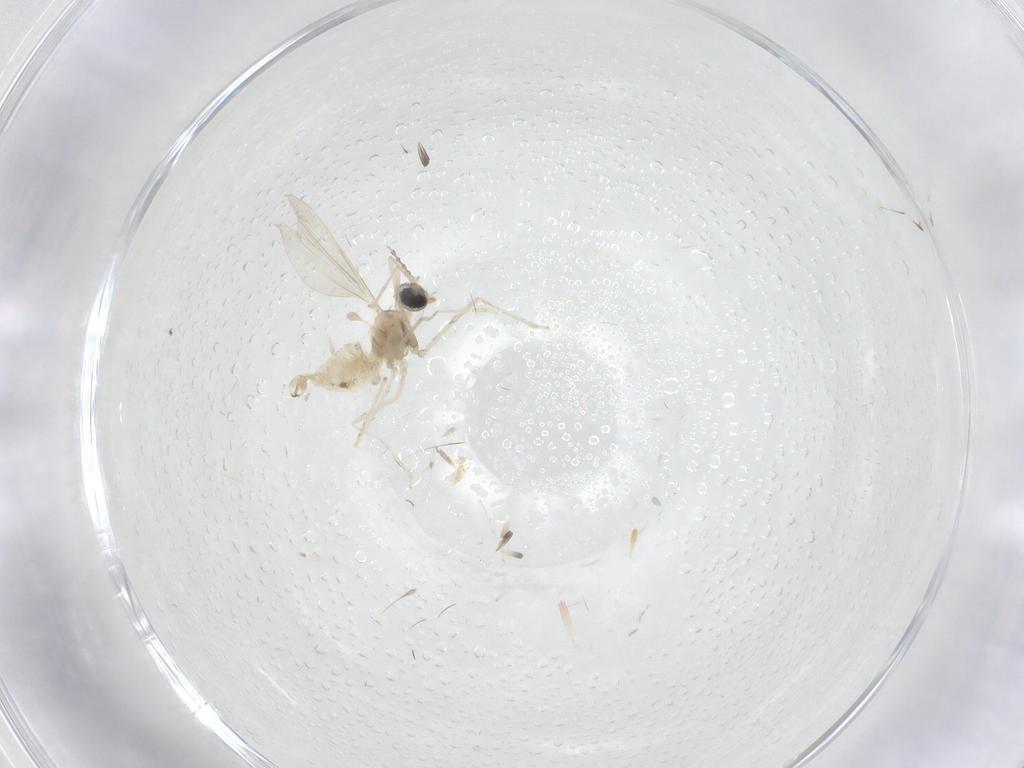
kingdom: Animalia
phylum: Arthropoda
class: Insecta
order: Diptera
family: Cecidomyiidae
